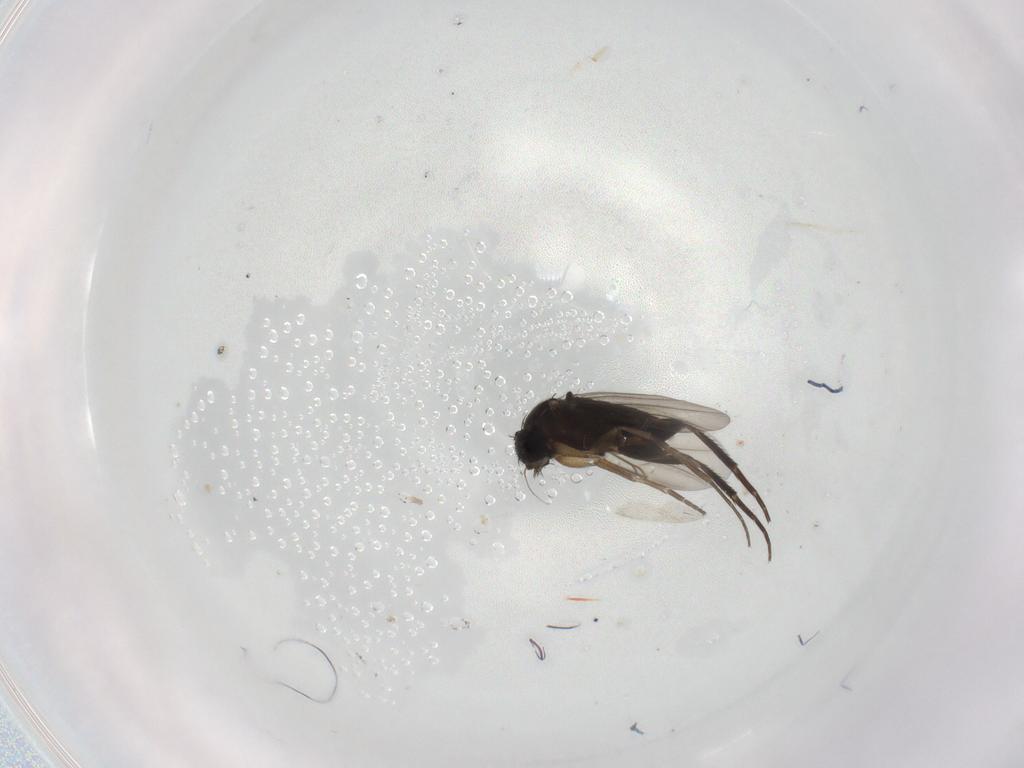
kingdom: Animalia
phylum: Arthropoda
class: Insecta
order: Diptera
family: Phoridae
